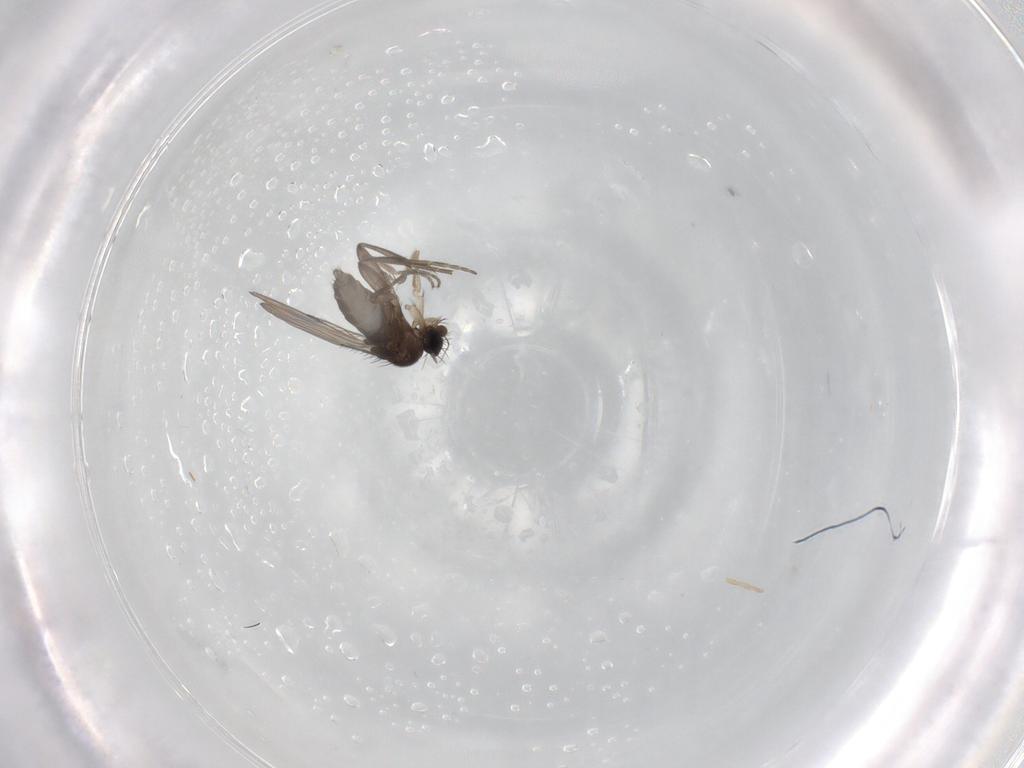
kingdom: Animalia
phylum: Arthropoda
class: Insecta
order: Diptera
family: Phoridae
